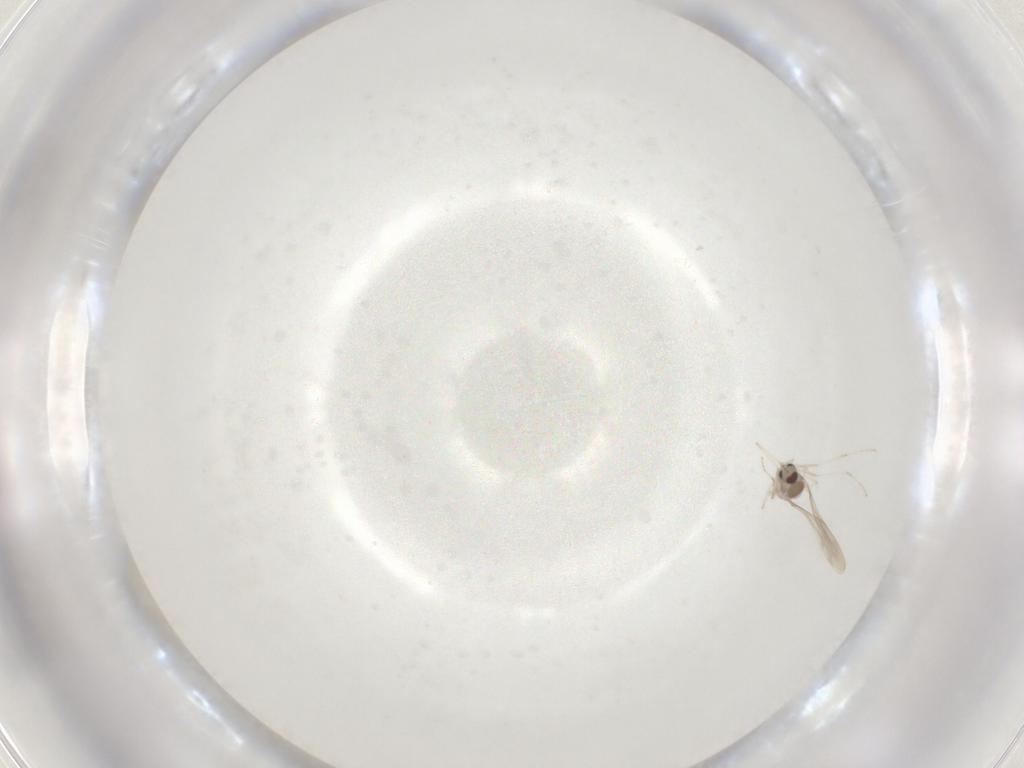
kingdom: Animalia
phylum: Arthropoda
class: Insecta
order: Diptera
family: Cecidomyiidae
